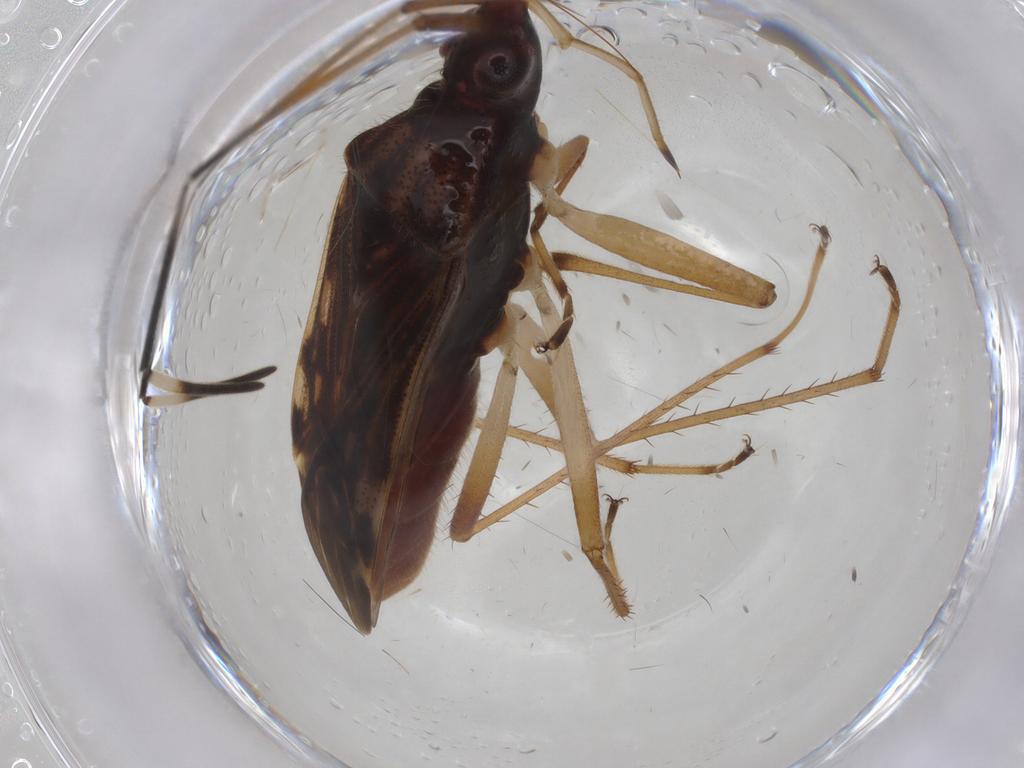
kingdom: Animalia
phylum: Arthropoda
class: Insecta
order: Hemiptera
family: Rhyparochromidae
